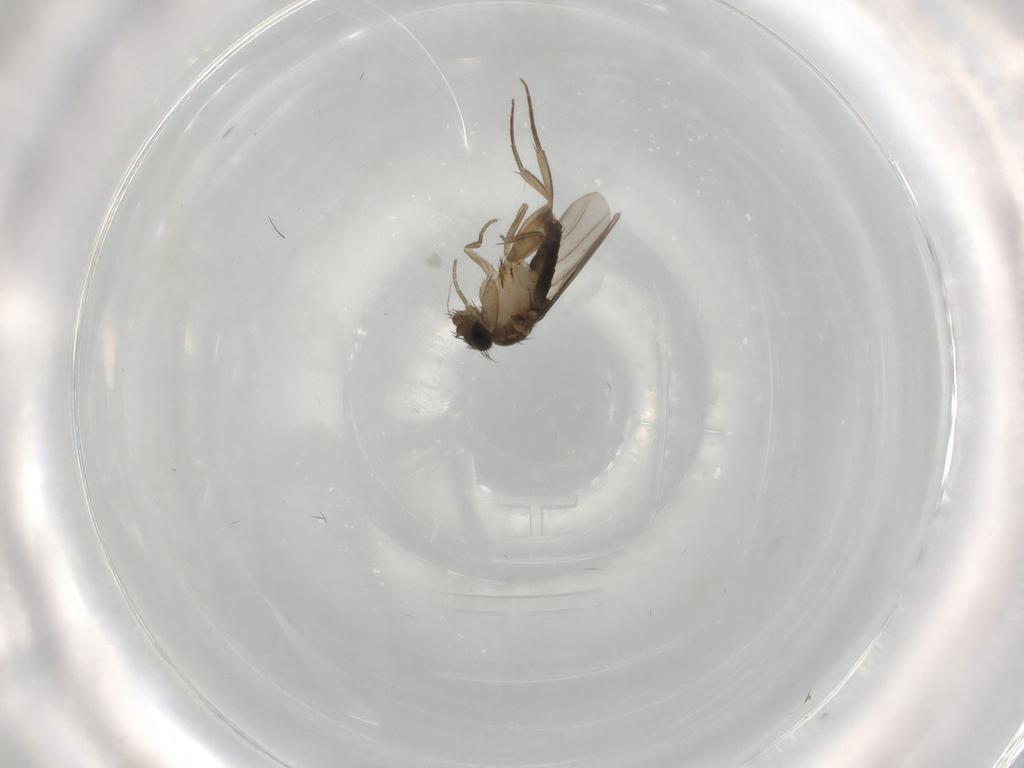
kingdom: Animalia
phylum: Arthropoda
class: Insecta
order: Diptera
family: Phoridae
